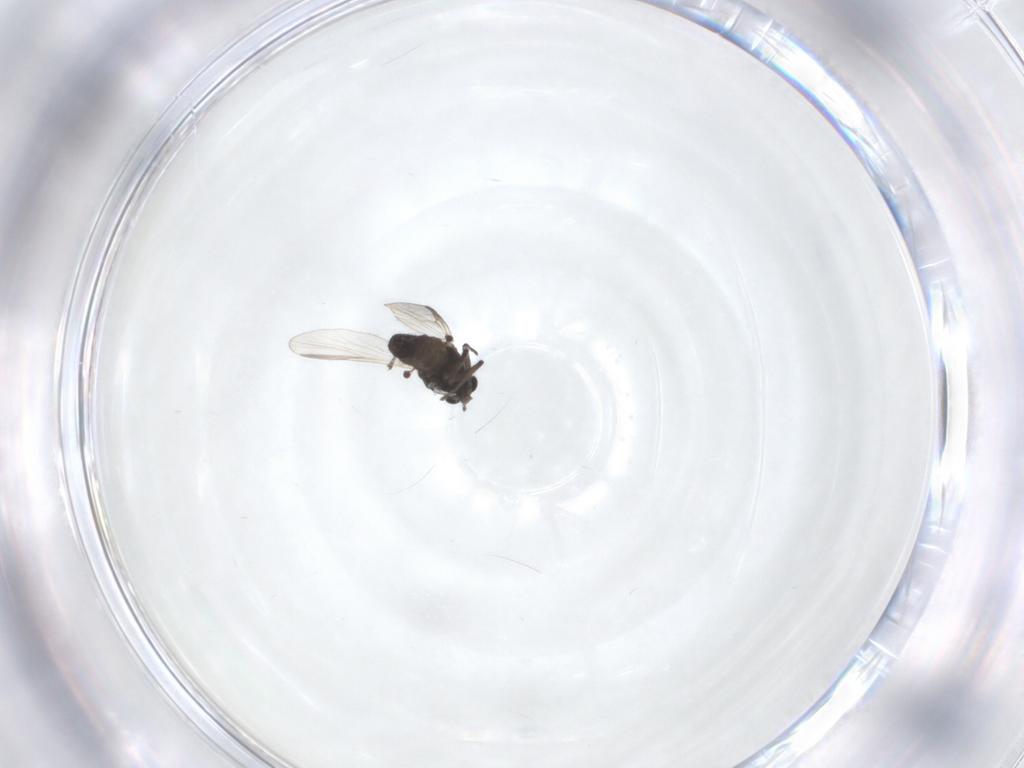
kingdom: Animalia
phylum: Arthropoda
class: Insecta
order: Diptera
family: Chironomidae
